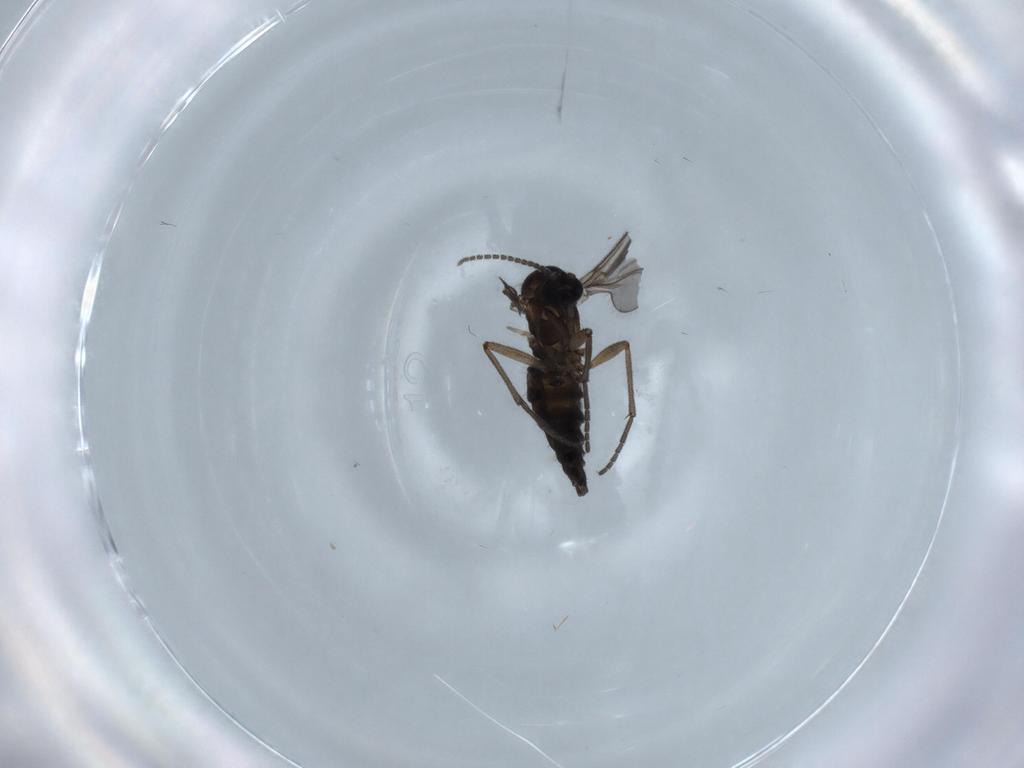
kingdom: Animalia
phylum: Arthropoda
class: Insecta
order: Diptera
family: Sciaridae
